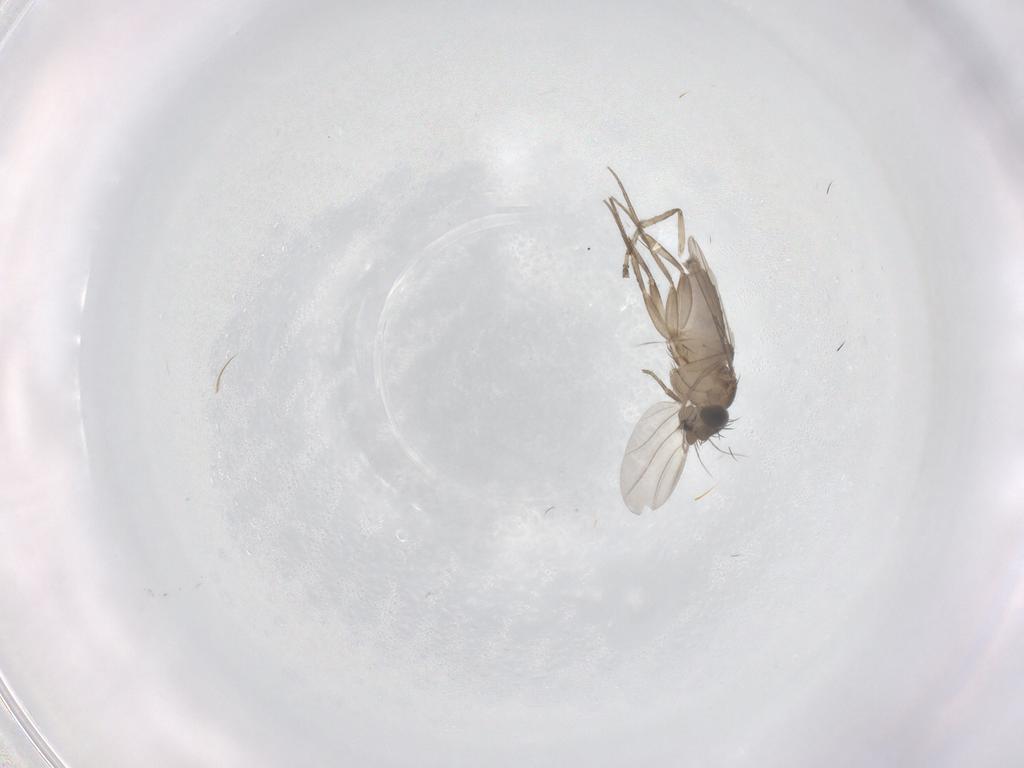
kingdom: Animalia
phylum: Arthropoda
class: Insecta
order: Diptera
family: Phoridae
